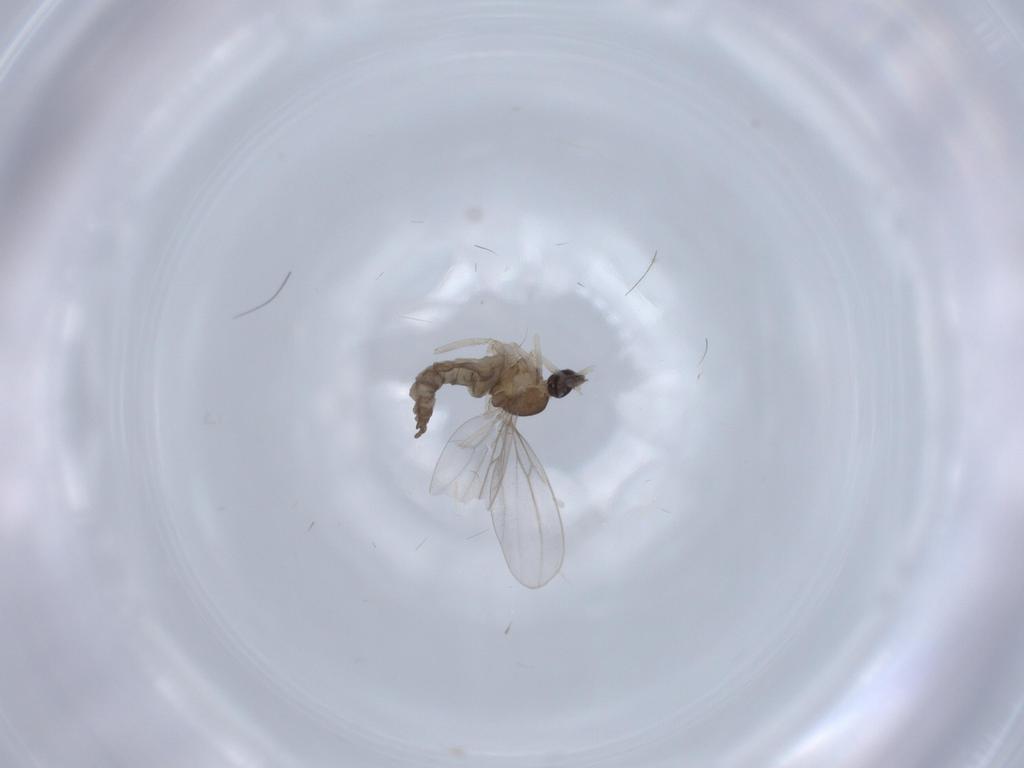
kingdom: Animalia
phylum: Arthropoda
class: Insecta
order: Diptera
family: Cecidomyiidae
